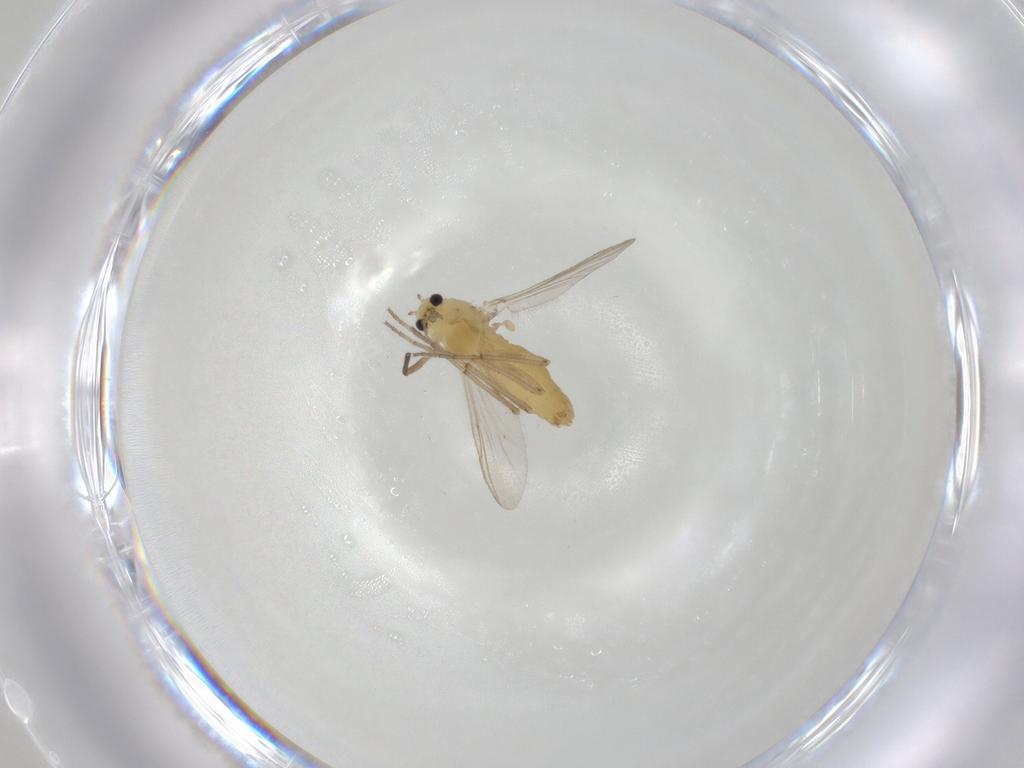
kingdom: Animalia
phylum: Arthropoda
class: Insecta
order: Diptera
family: Chironomidae
